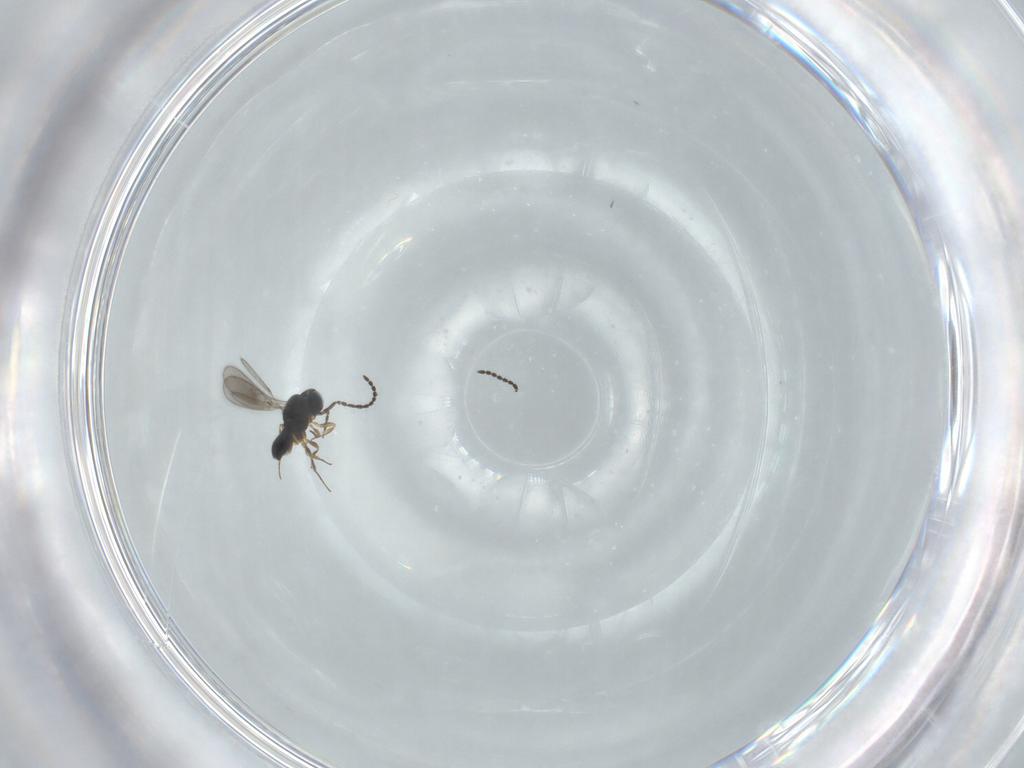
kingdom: Animalia
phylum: Arthropoda
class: Insecta
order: Hymenoptera
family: Scelionidae
